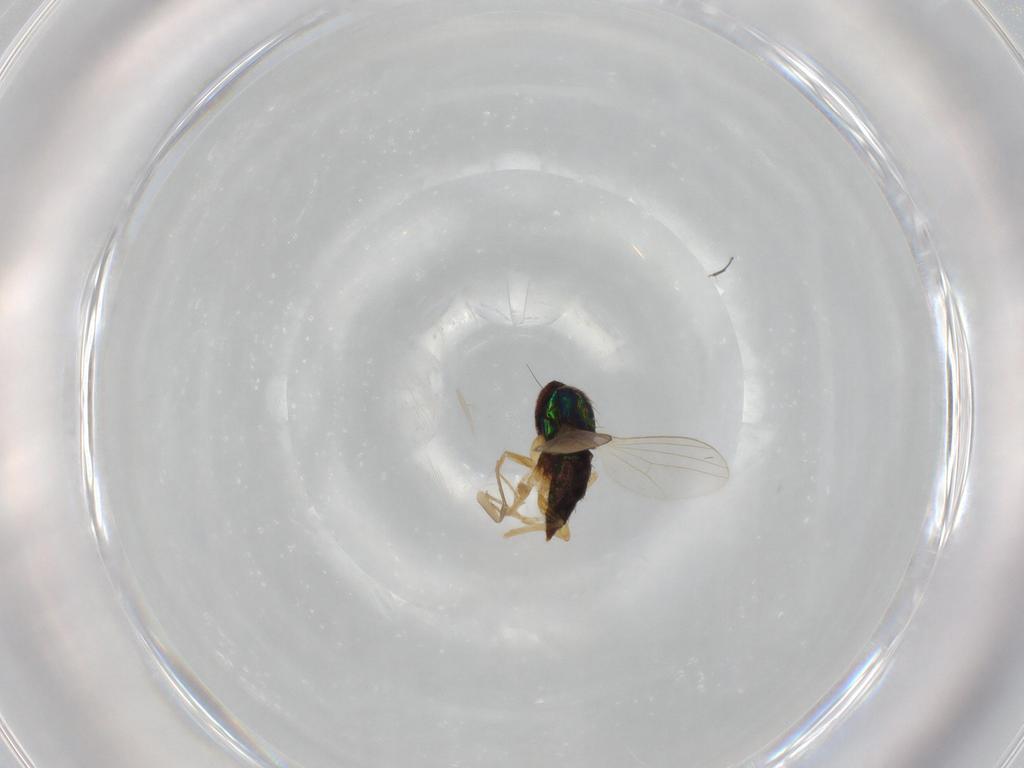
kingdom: Animalia
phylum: Arthropoda
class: Insecta
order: Diptera
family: Dolichopodidae
